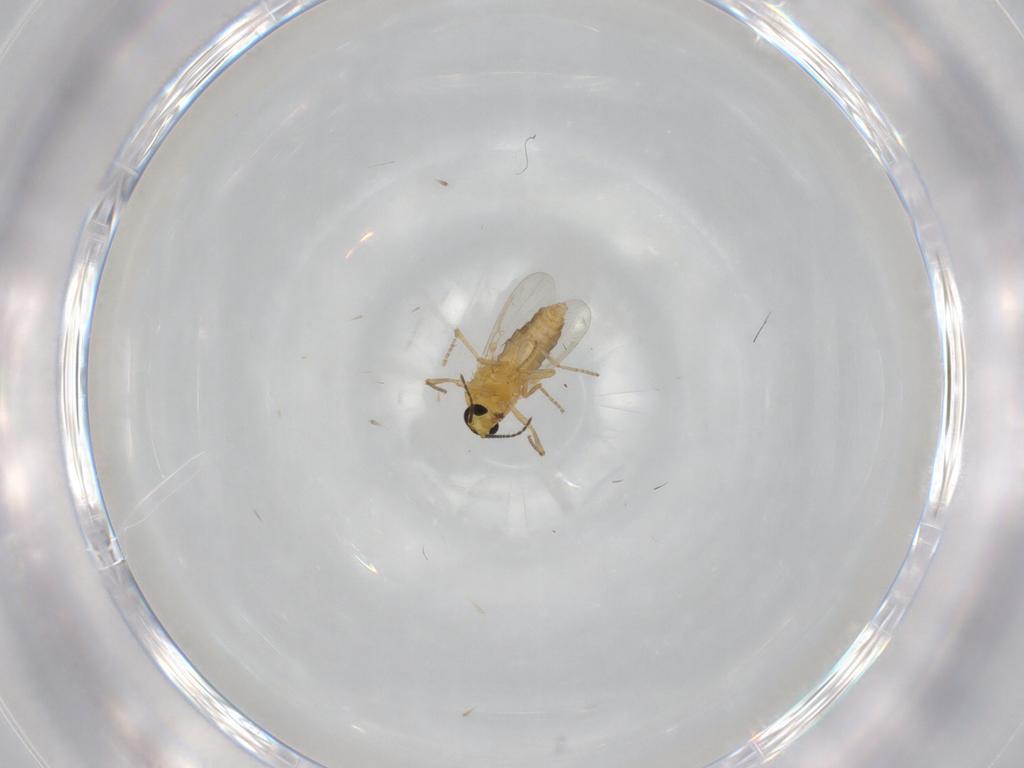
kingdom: Animalia
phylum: Arthropoda
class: Insecta
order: Diptera
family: Ceratopogonidae
